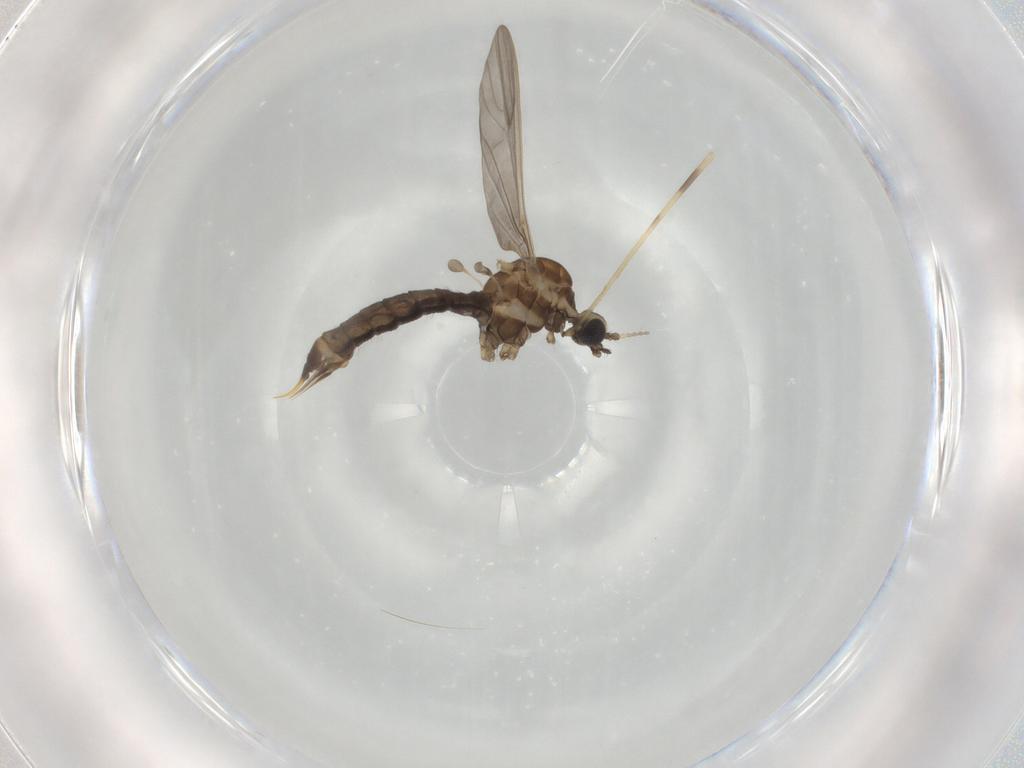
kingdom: Animalia
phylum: Arthropoda
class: Insecta
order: Diptera
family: Limoniidae
